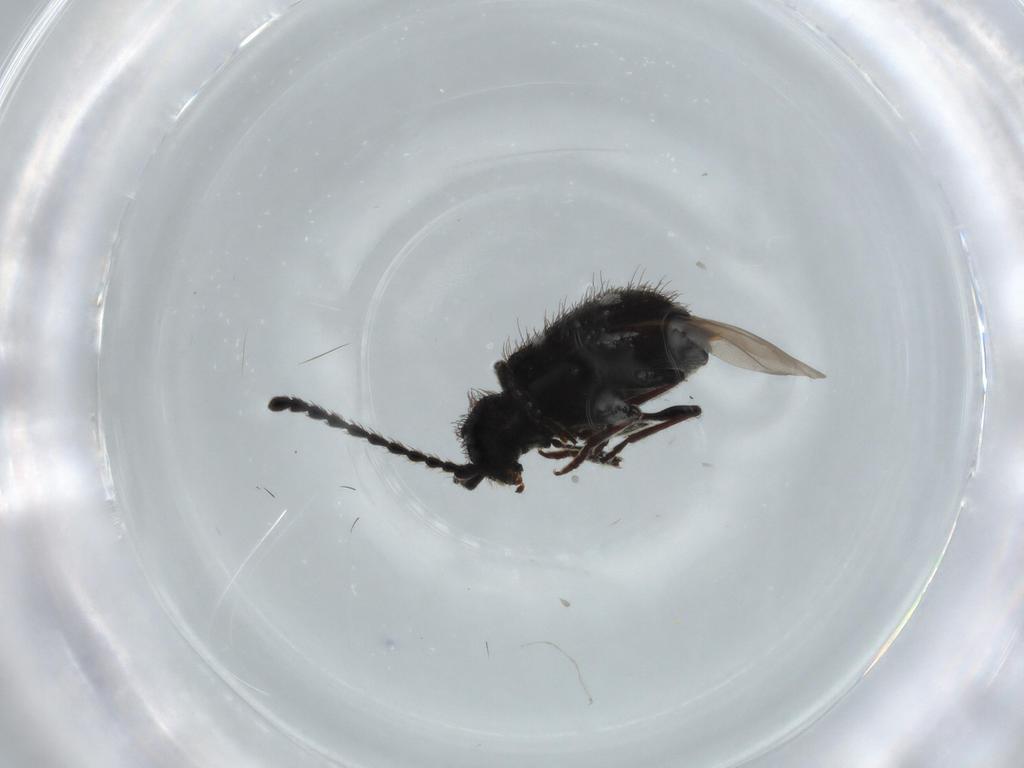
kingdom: Animalia
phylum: Arthropoda
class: Insecta
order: Coleoptera
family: Ptinidae
